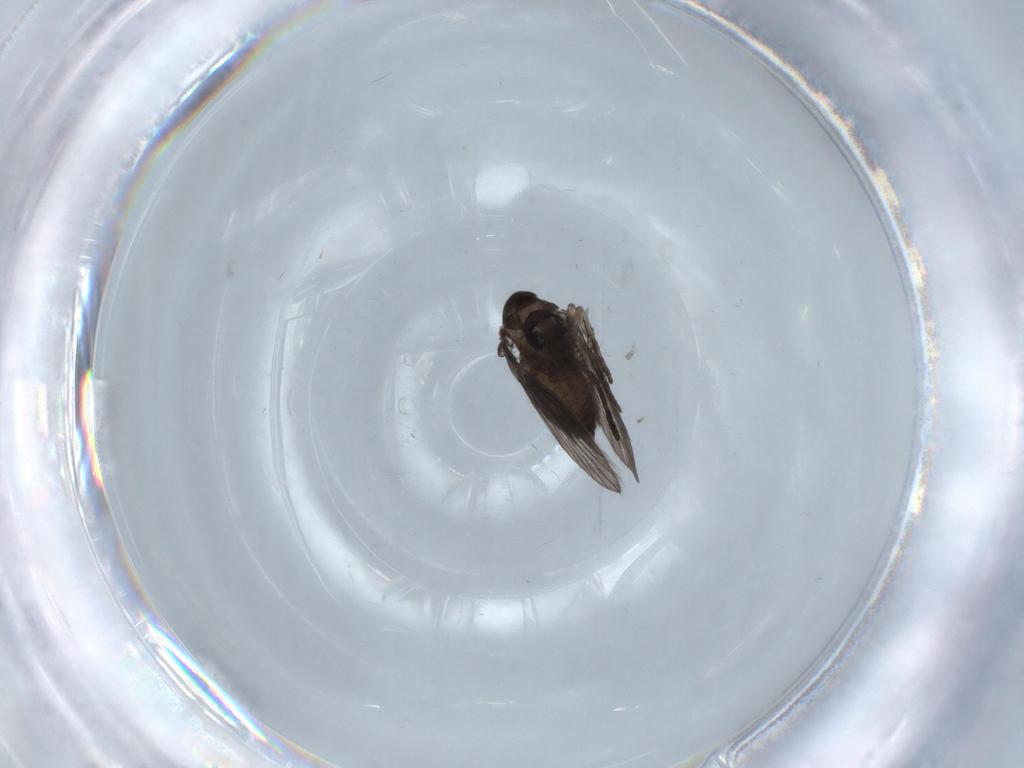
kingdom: Animalia
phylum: Arthropoda
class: Insecta
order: Diptera
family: Psychodidae
